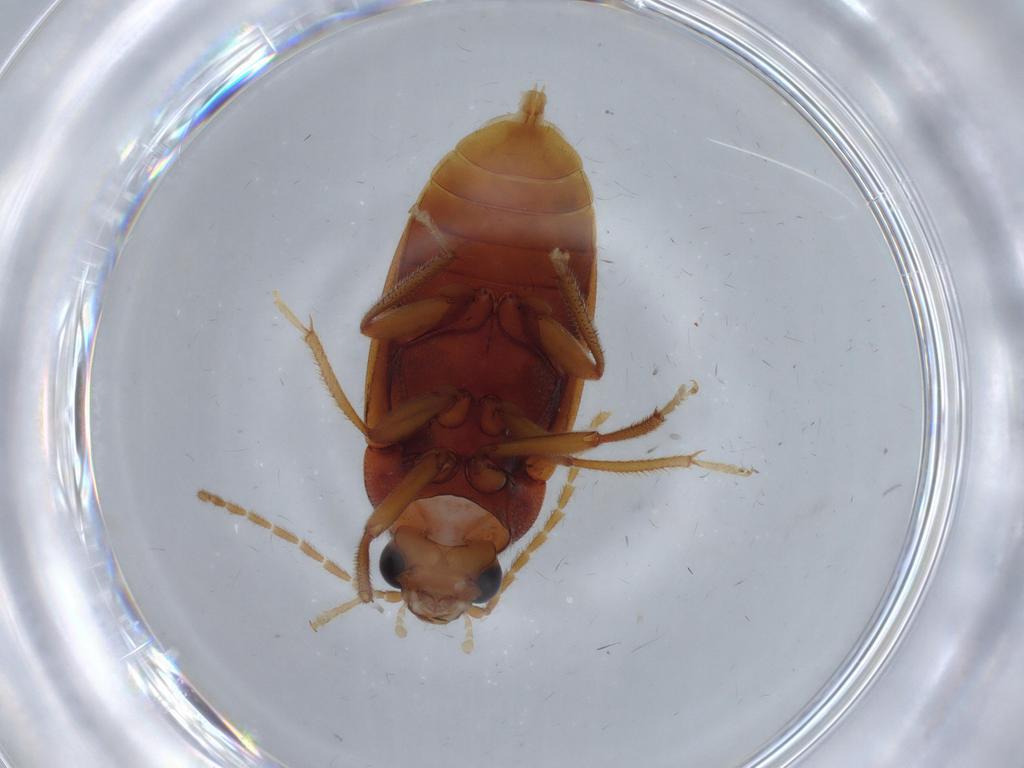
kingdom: Animalia
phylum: Arthropoda
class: Insecta
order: Coleoptera
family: Ptilodactylidae
